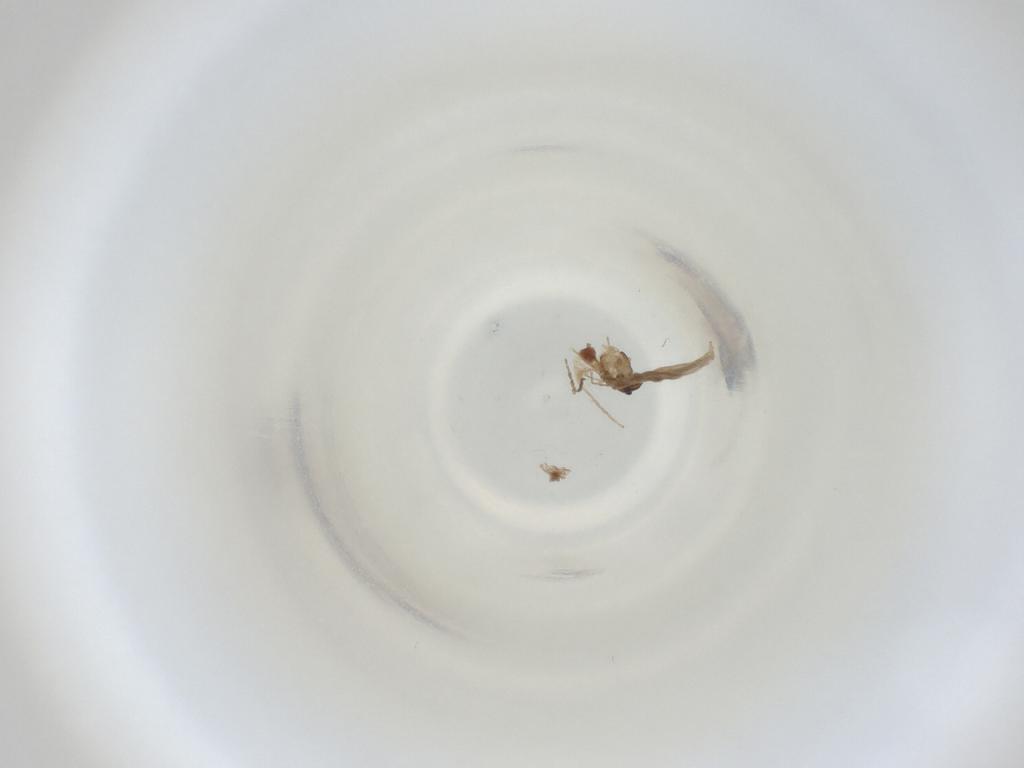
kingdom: Animalia
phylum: Arthropoda
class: Insecta
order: Diptera
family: Cecidomyiidae
